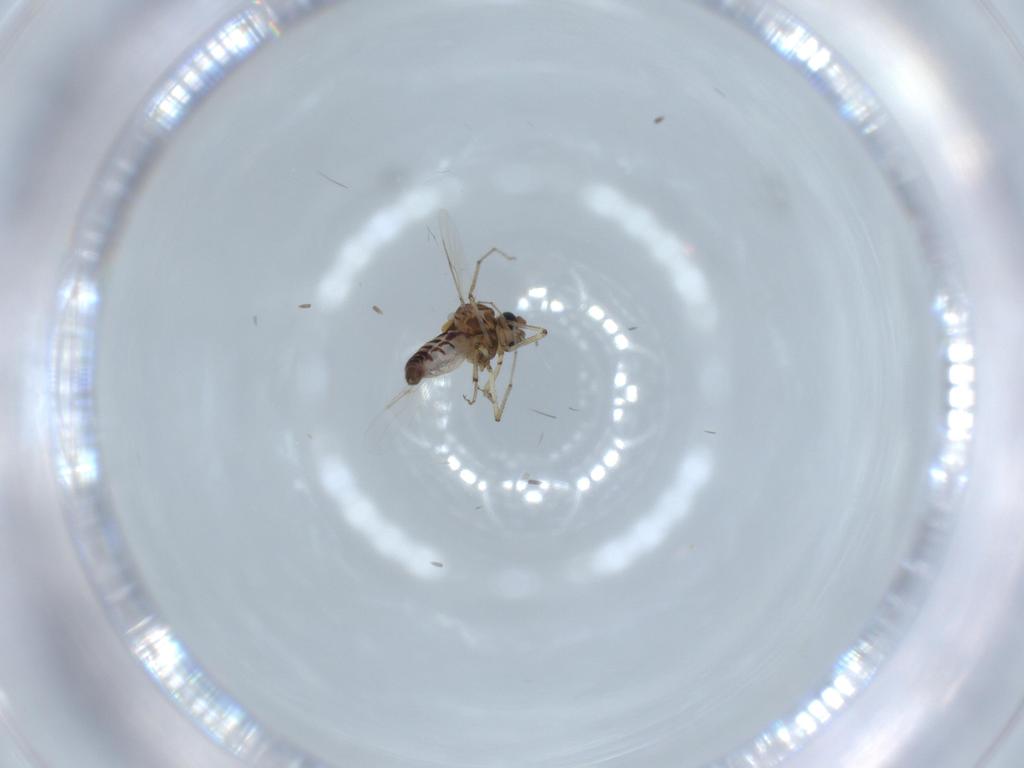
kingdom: Animalia
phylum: Arthropoda
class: Insecta
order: Diptera
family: Ceratopogonidae
